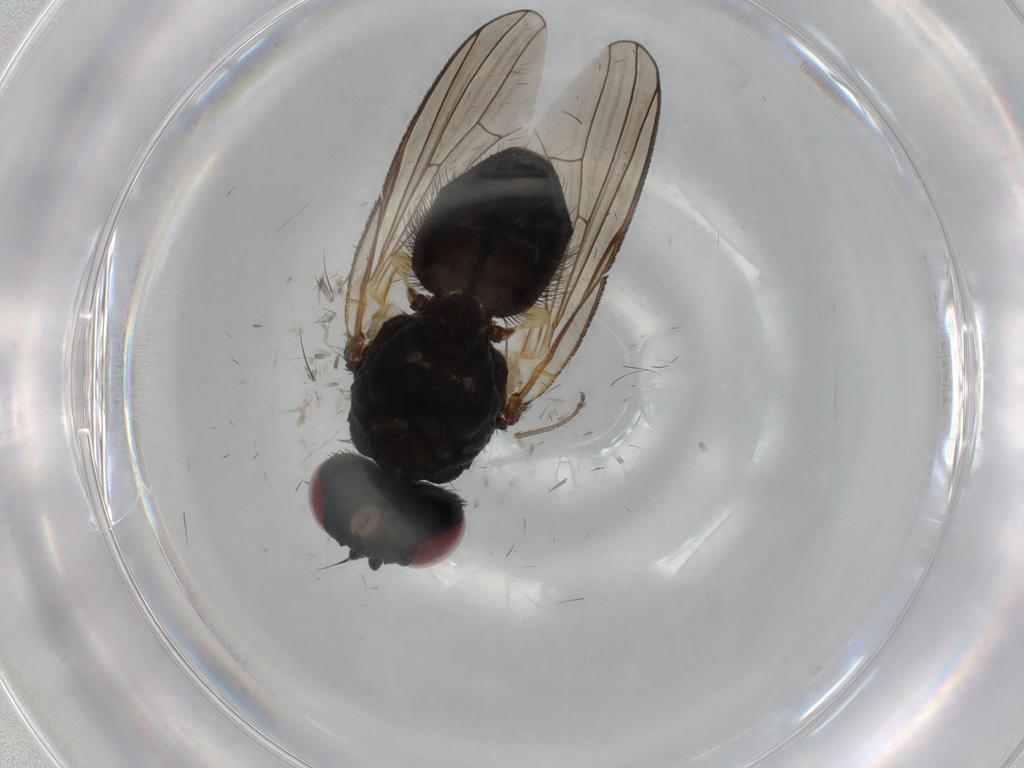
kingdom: Animalia
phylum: Arthropoda
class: Insecta
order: Diptera
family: Fannia
